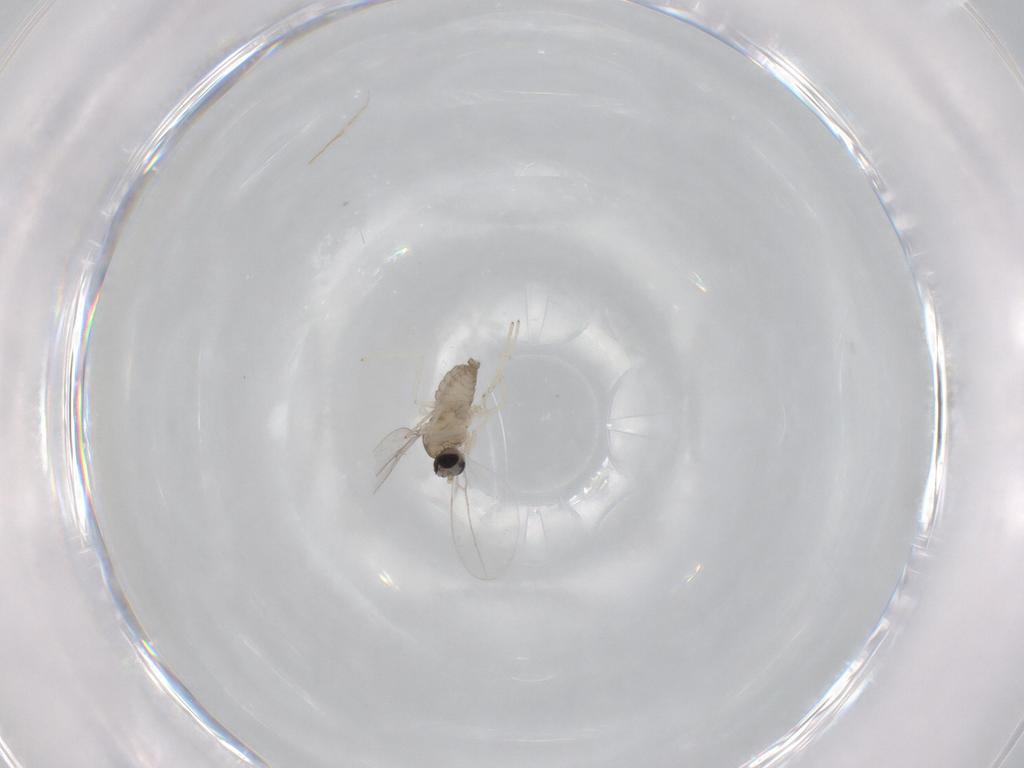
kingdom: Animalia
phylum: Arthropoda
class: Insecta
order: Diptera
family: Cecidomyiidae
